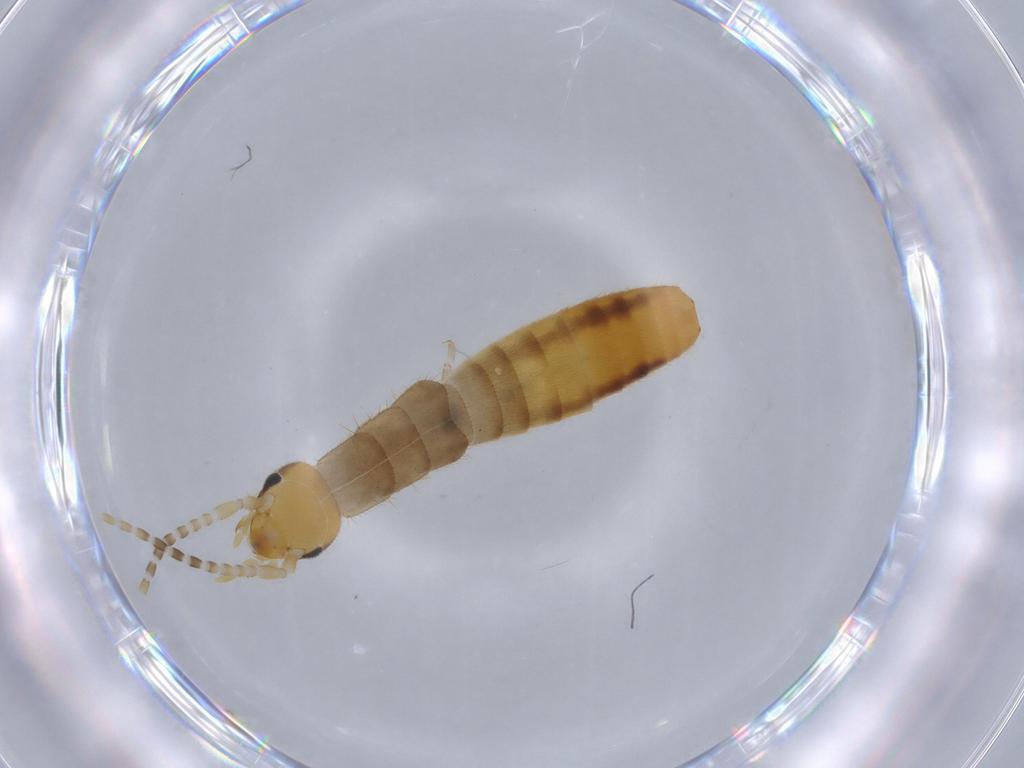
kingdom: Animalia
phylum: Arthropoda
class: Insecta
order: Dermaptera
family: Forficulidae
